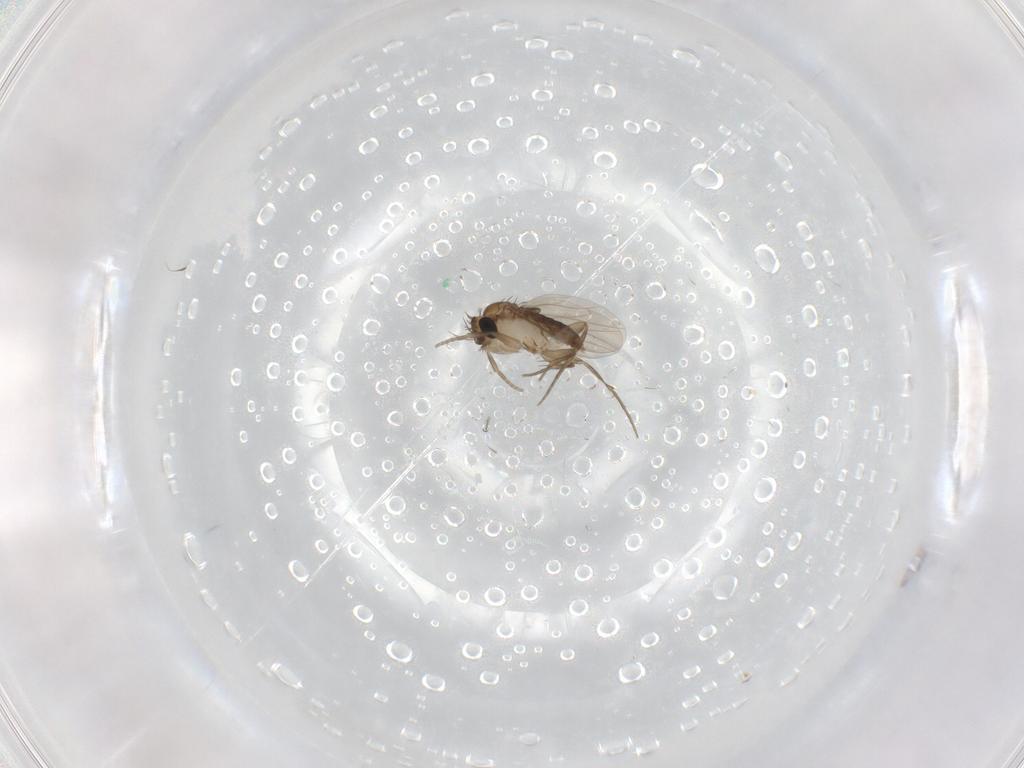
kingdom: Animalia
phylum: Arthropoda
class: Insecta
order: Diptera
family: Phoridae
